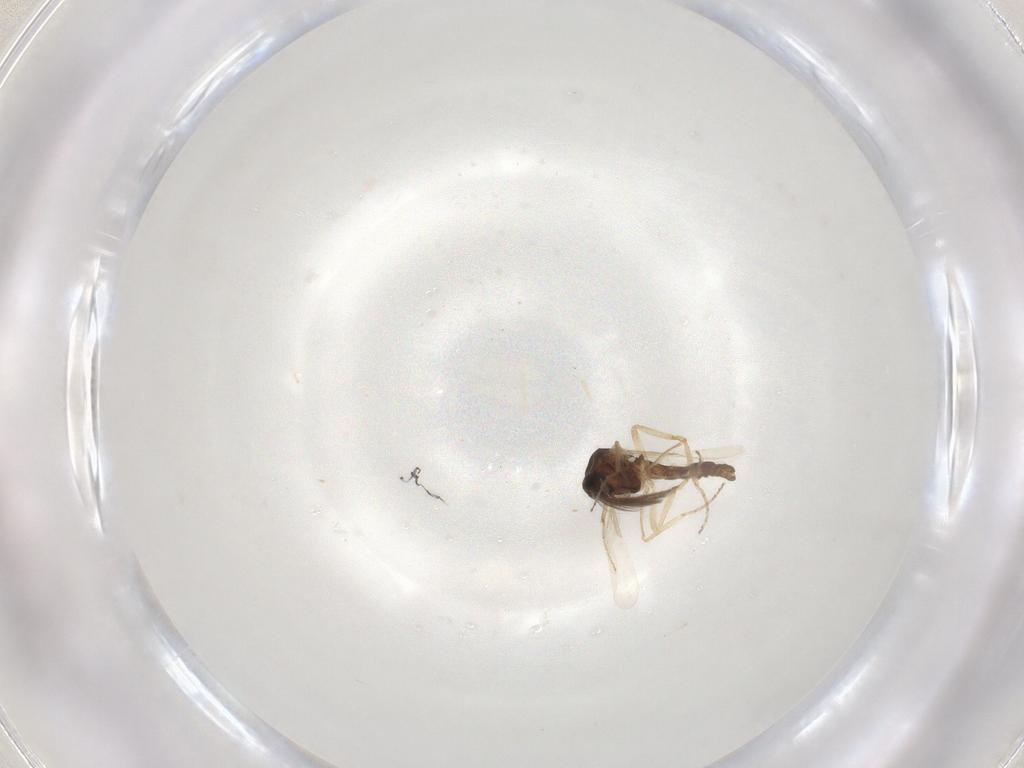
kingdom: Animalia
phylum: Arthropoda
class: Insecta
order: Diptera
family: Ceratopogonidae
